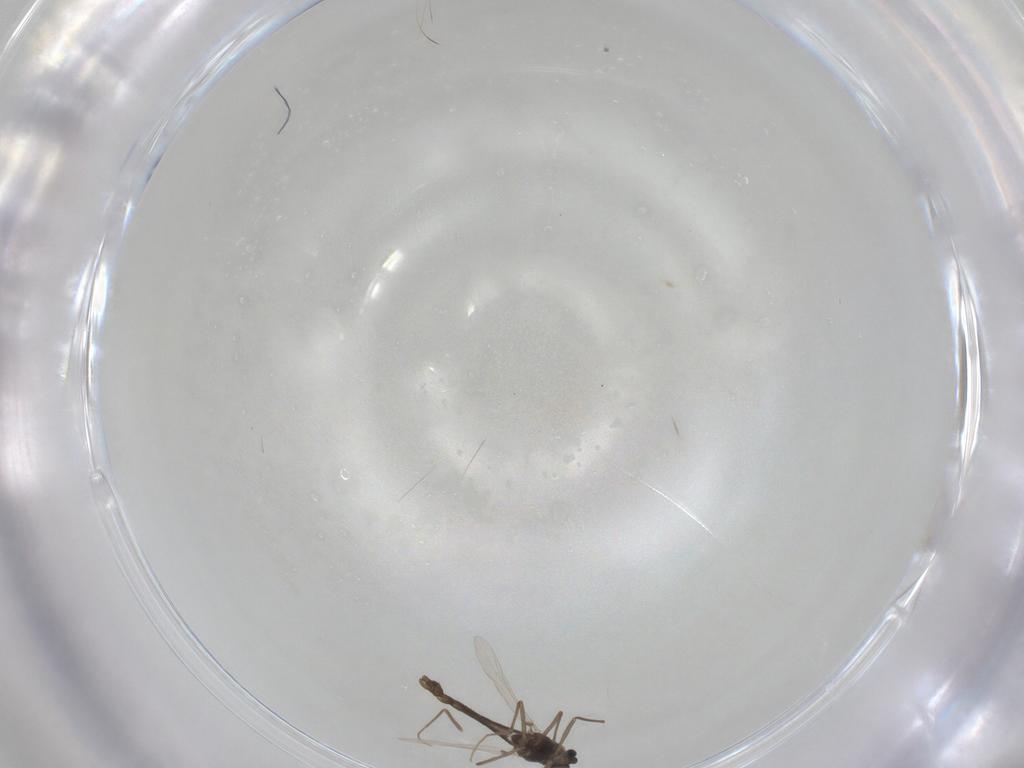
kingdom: Animalia
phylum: Arthropoda
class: Insecta
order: Diptera
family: Chironomidae
